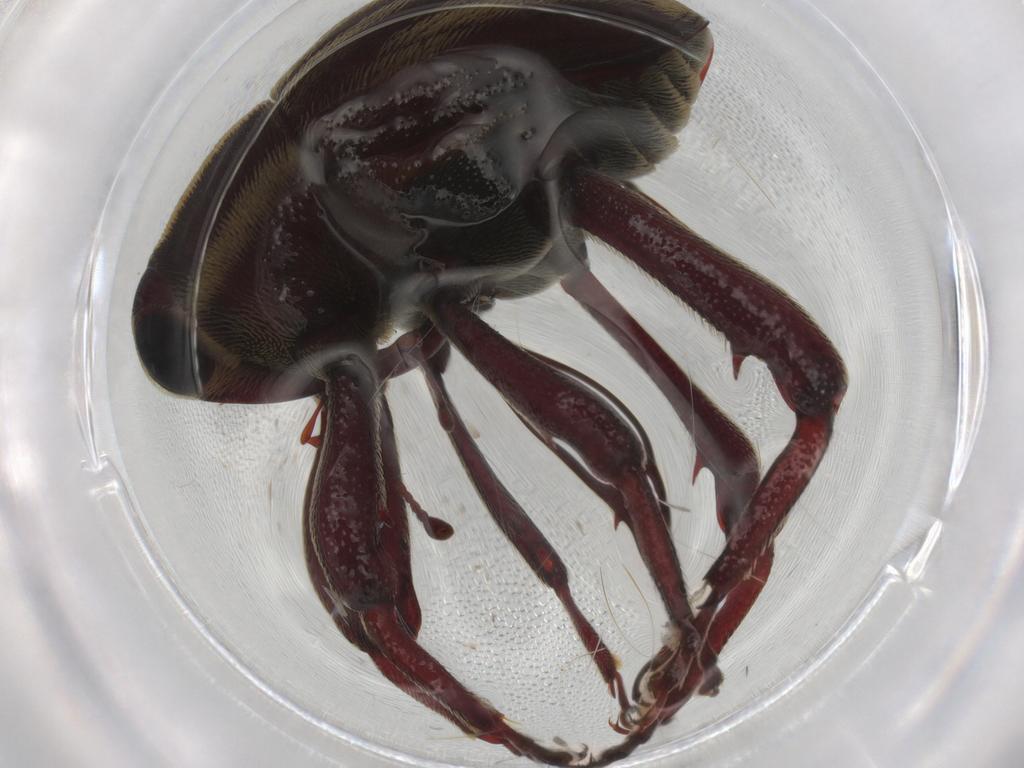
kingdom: Animalia
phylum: Arthropoda
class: Insecta
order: Coleoptera
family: Curculionidae
